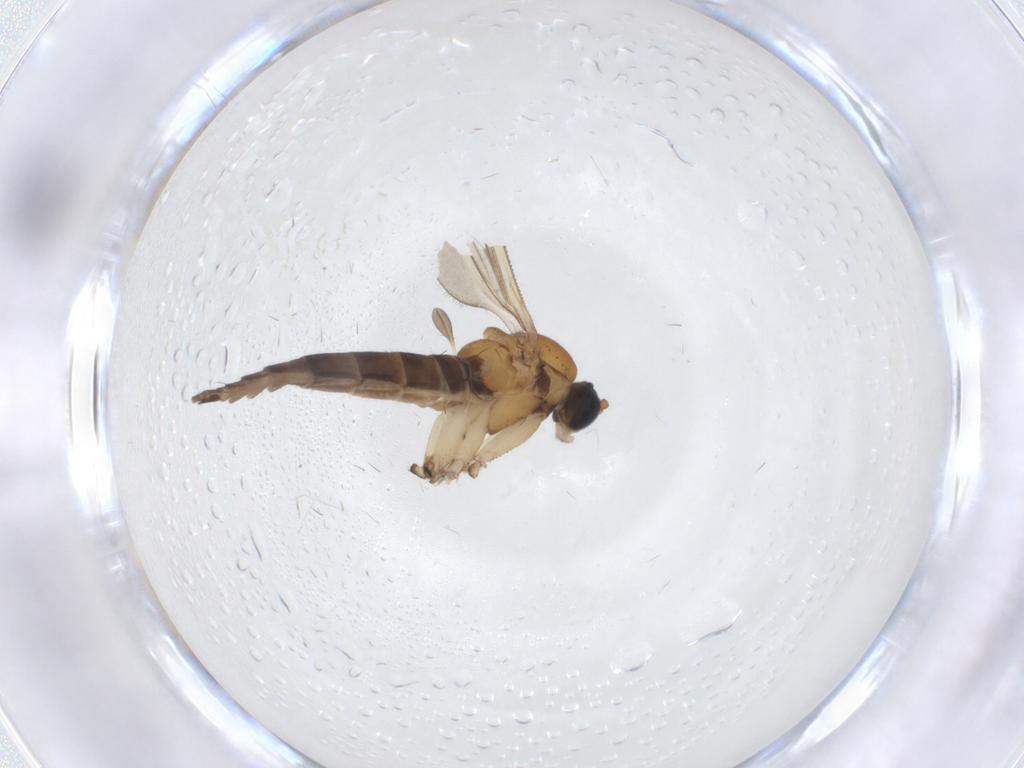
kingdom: Animalia
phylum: Arthropoda
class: Insecta
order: Diptera
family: Sciaridae
